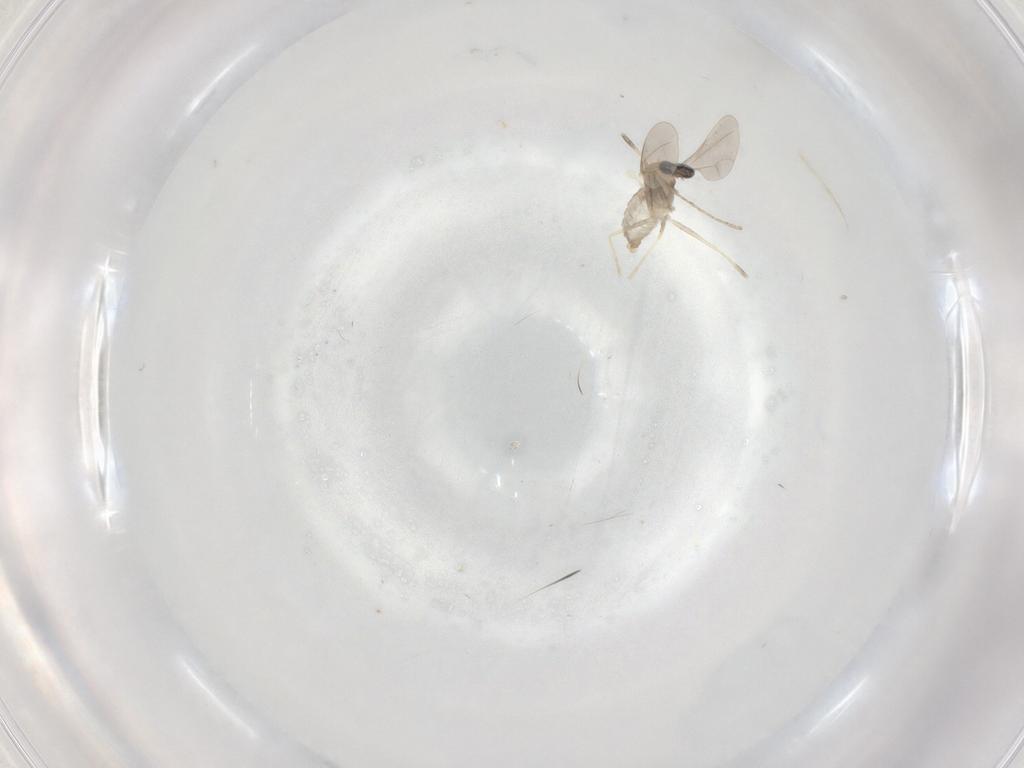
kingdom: Animalia
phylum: Arthropoda
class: Insecta
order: Diptera
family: Cecidomyiidae
